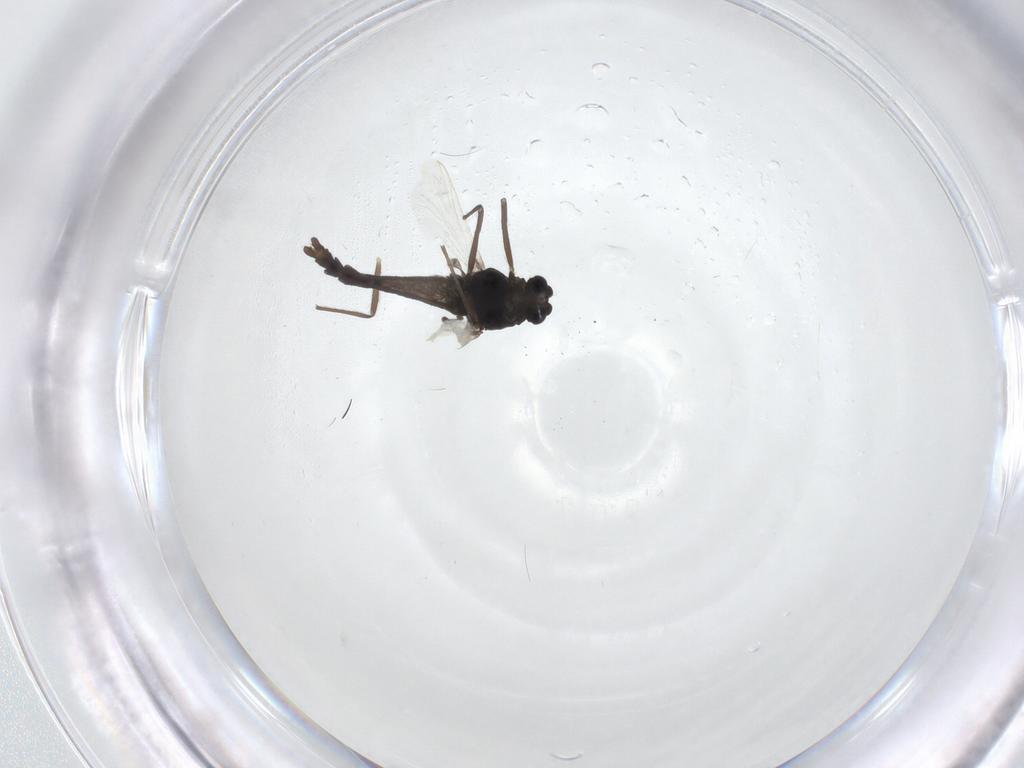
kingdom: Animalia
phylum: Arthropoda
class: Insecta
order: Diptera
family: Ceratopogonidae
